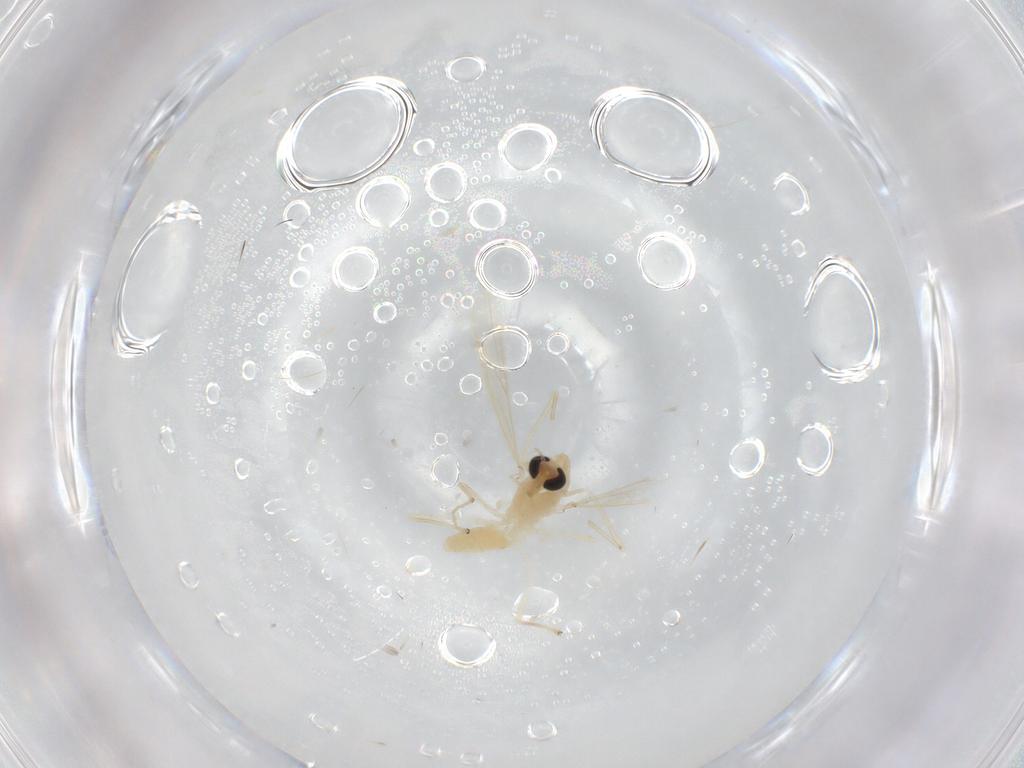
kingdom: Animalia
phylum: Arthropoda
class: Insecta
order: Diptera
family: Chironomidae
